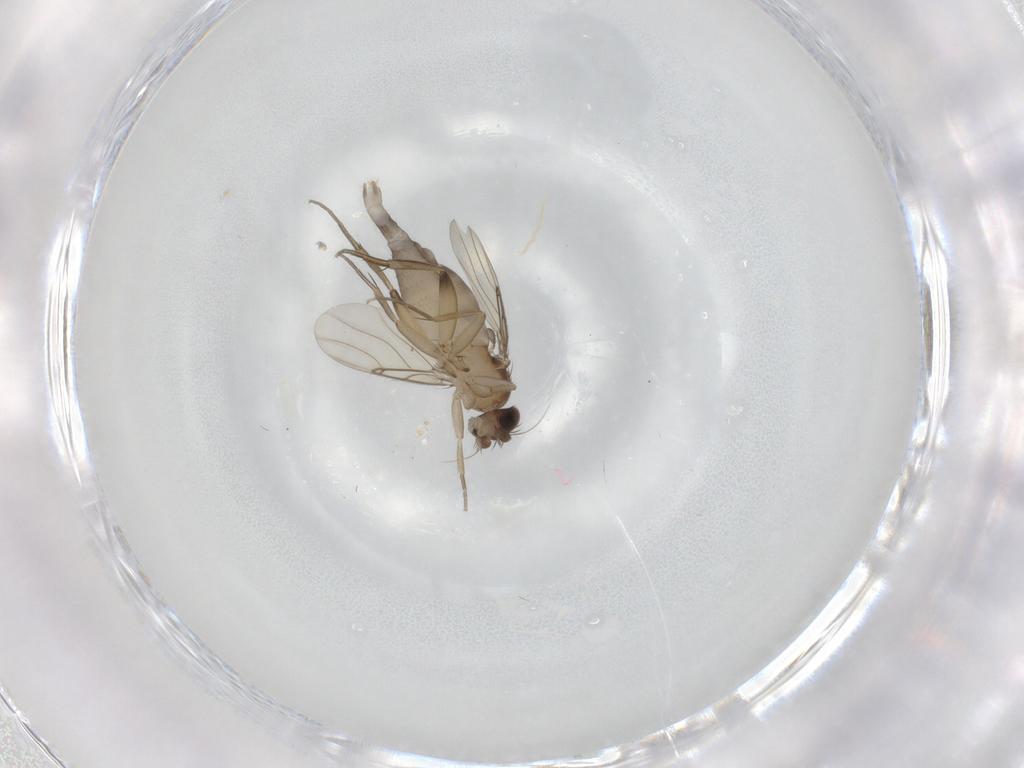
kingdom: Animalia
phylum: Arthropoda
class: Insecta
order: Diptera
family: Phoridae
